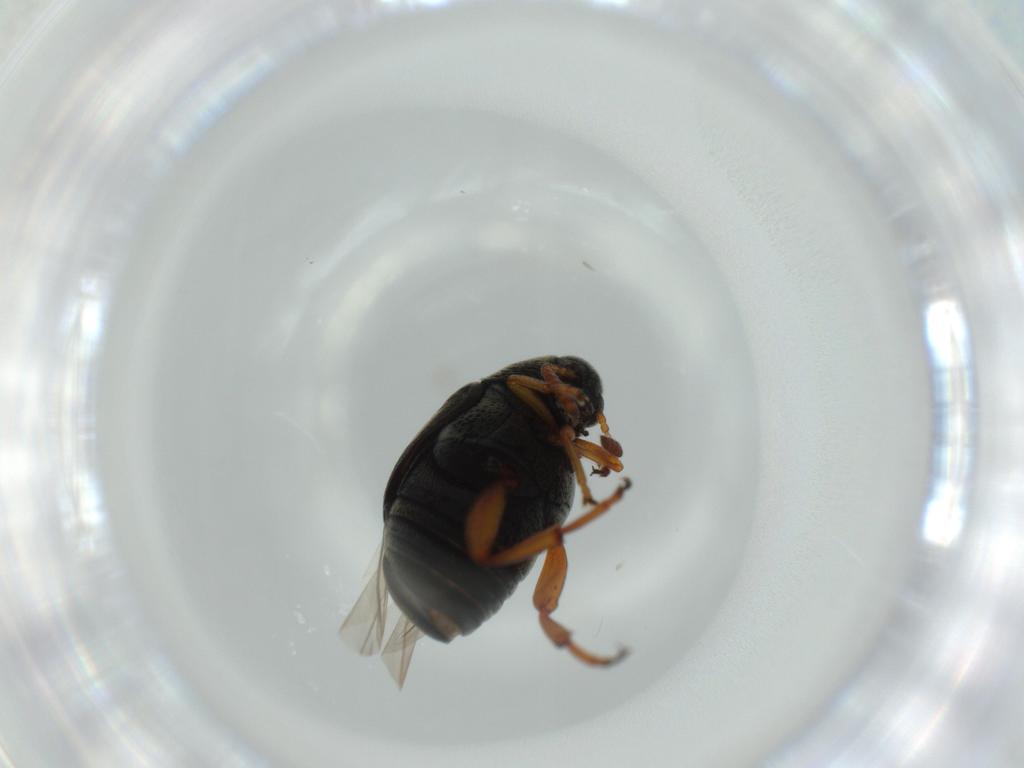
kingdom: Animalia
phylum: Arthropoda
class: Insecta
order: Coleoptera
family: Chrysomelidae
